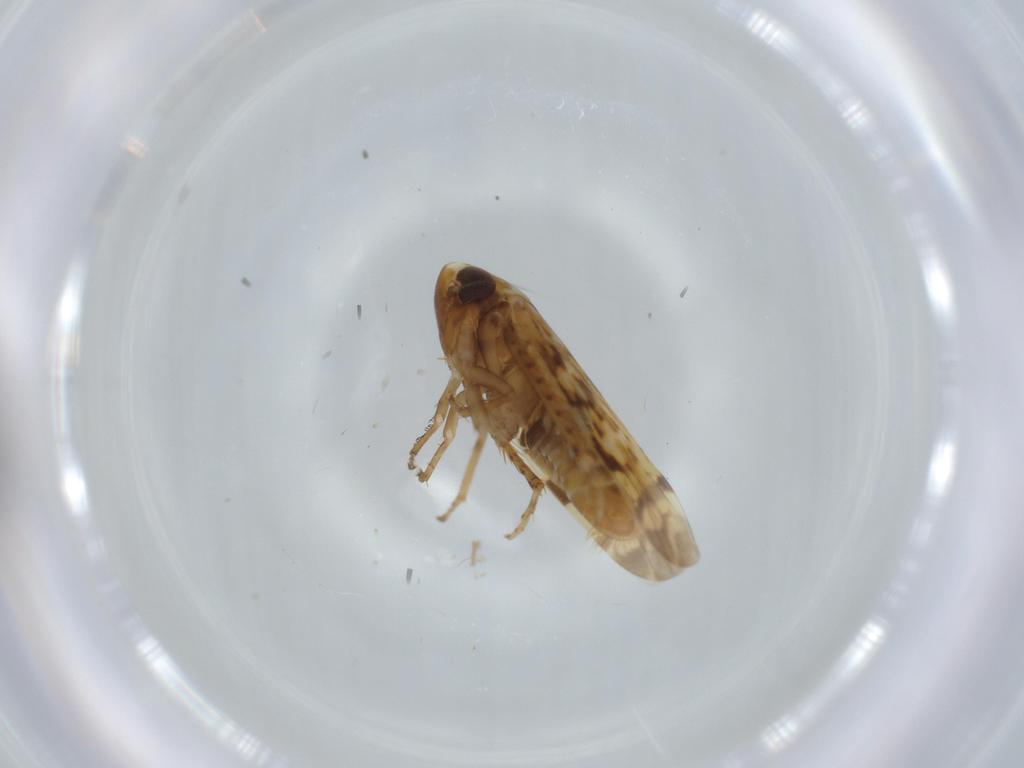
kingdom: Animalia
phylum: Arthropoda
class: Insecta
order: Hemiptera
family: Cicadellidae
